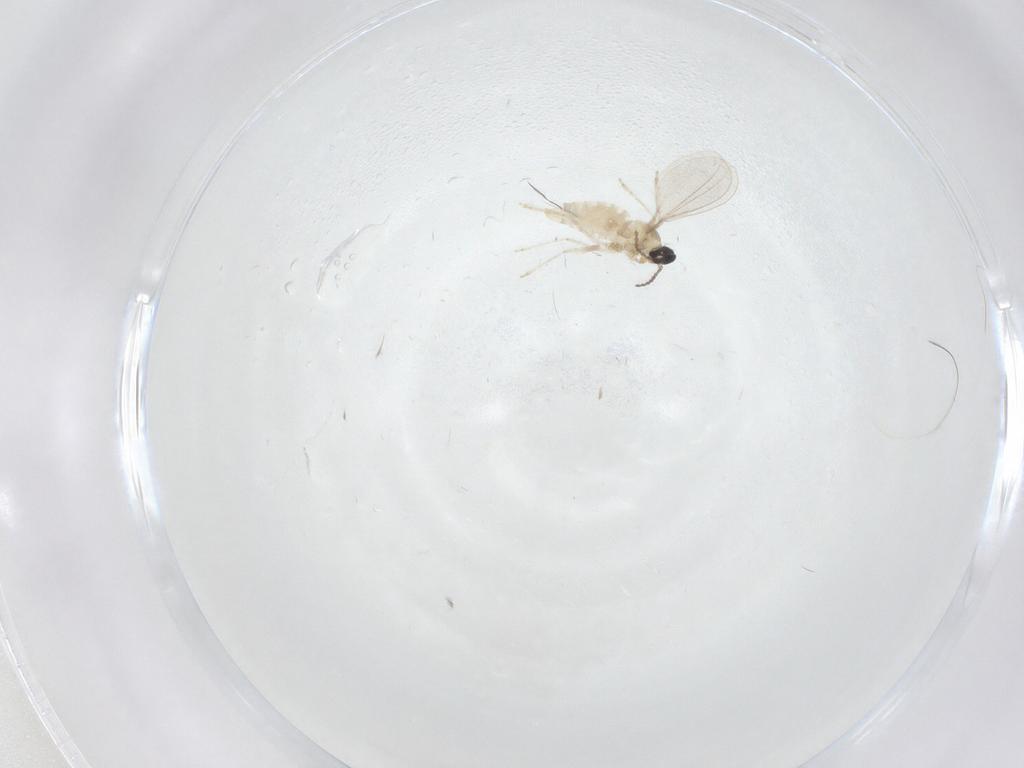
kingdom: Animalia
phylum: Arthropoda
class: Insecta
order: Diptera
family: Cecidomyiidae
